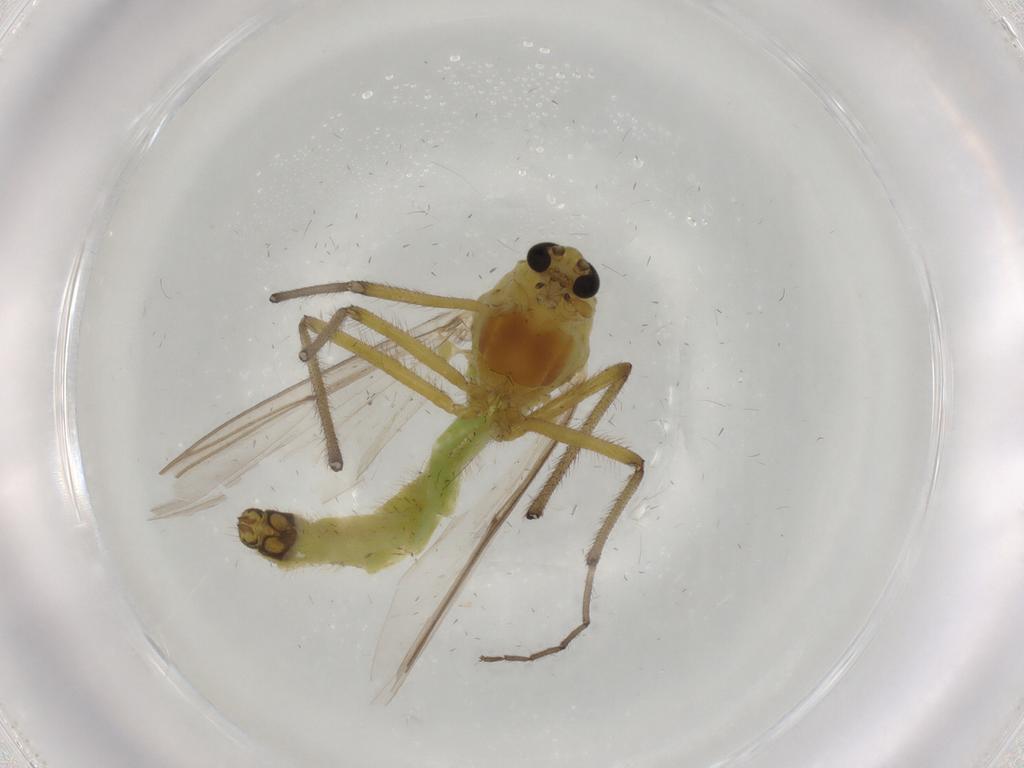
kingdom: Animalia
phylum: Arthropoda
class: Insecta
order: Diptera
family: Chironomidae
